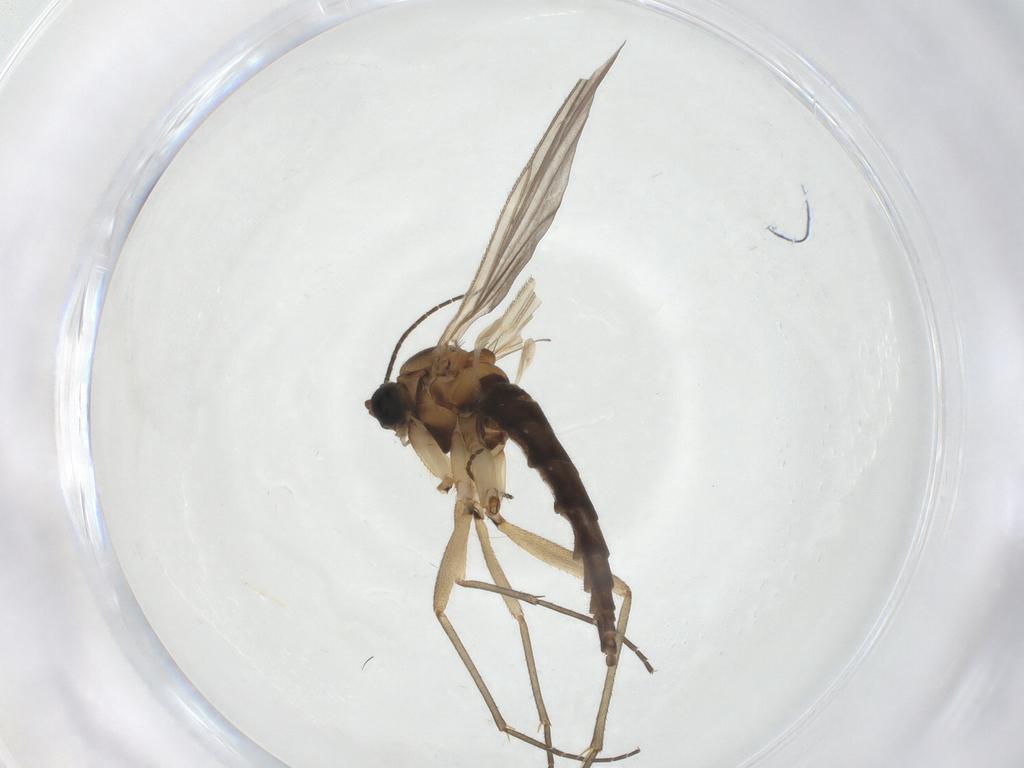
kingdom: Animalia
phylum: Arthropoda
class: Insecta
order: Diptera
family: Sciaridae
